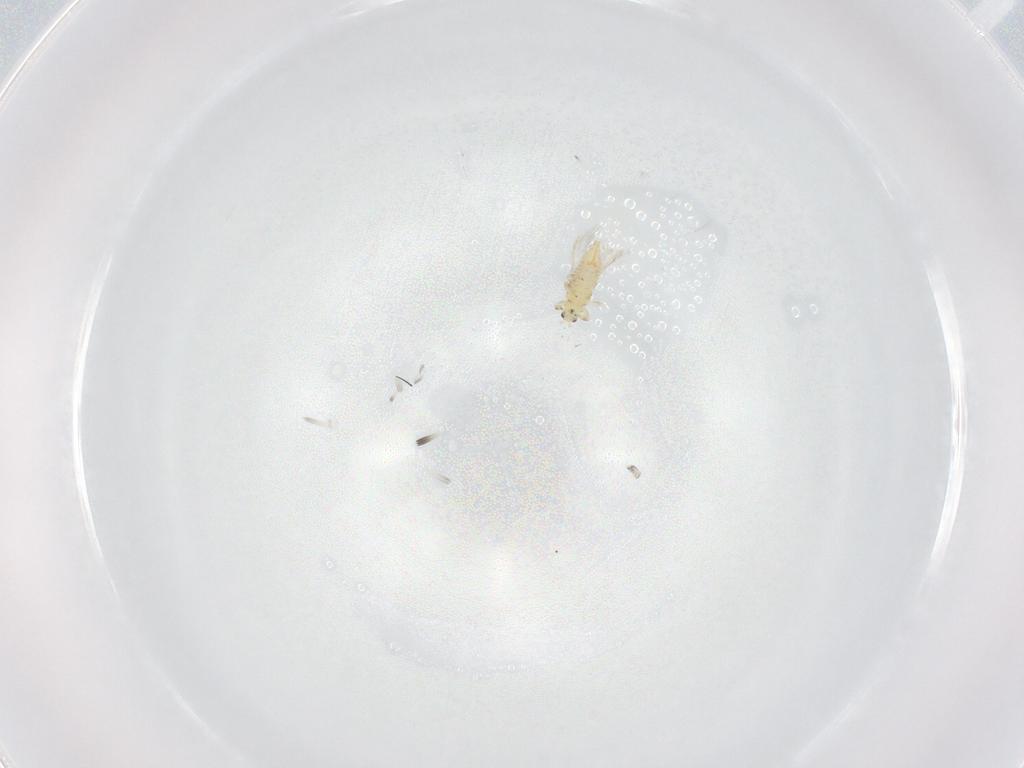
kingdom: Animalia
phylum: Arthropoda
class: Insecta
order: Thysanoptera
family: Thripidae
